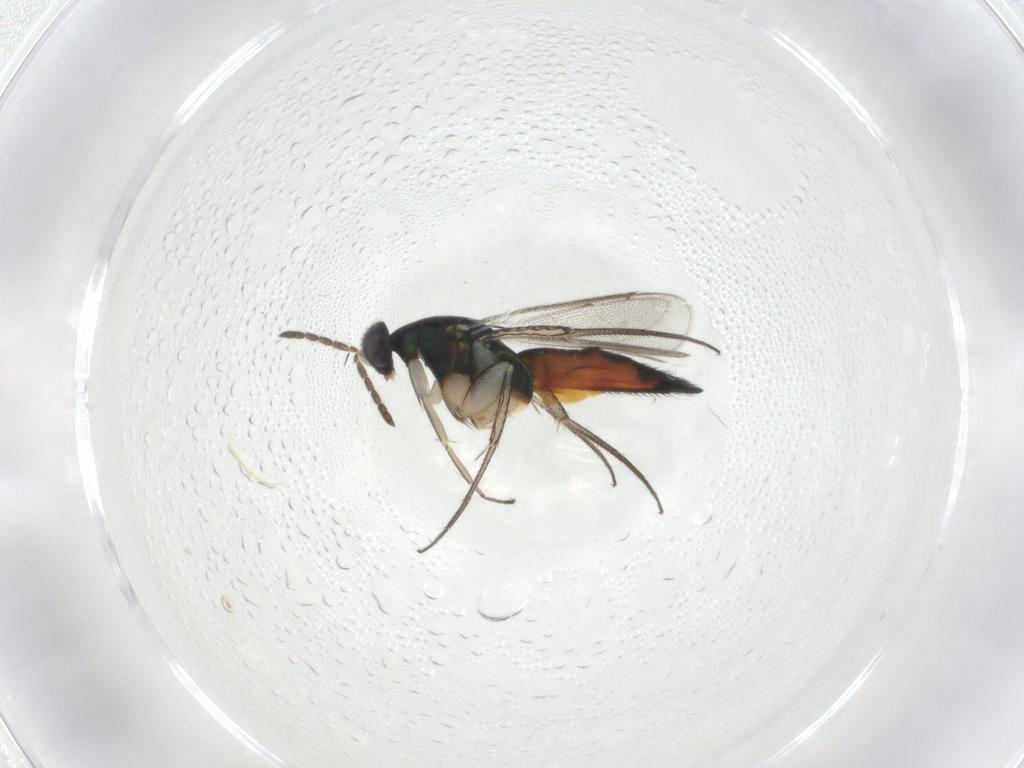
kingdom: Animalia
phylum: Arthropoda
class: Insecta
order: Hymenoptera
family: Eulophidae
